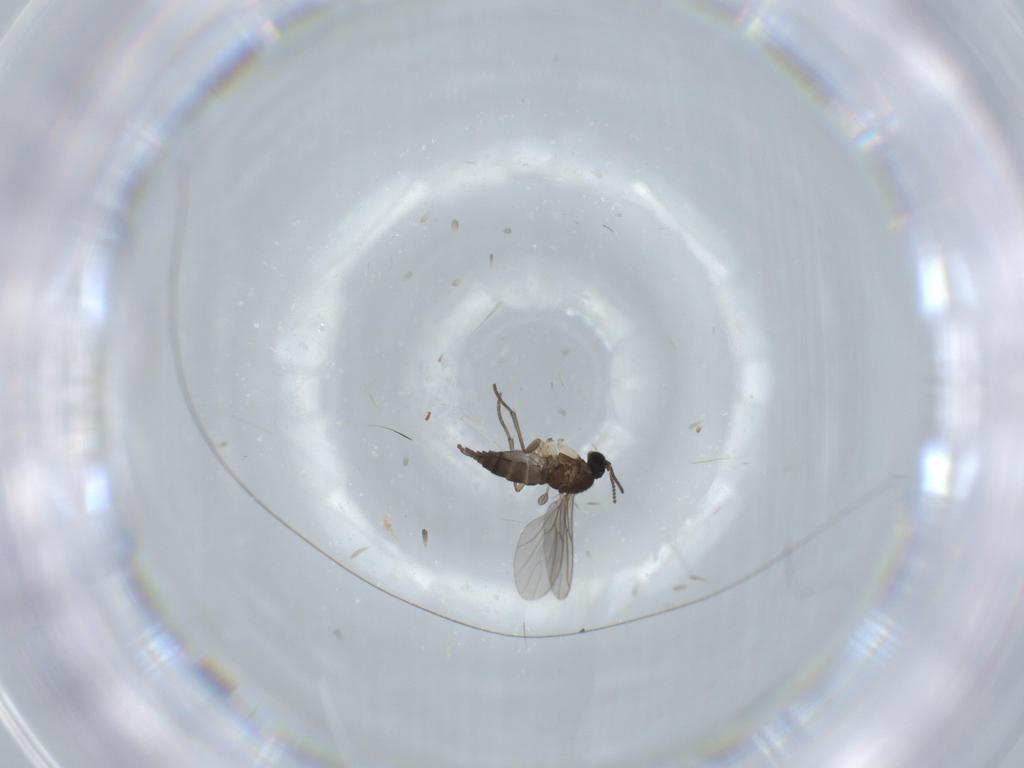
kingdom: Animalia
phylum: Arthropoda
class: Insecta
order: Diptera
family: Sciaridae
